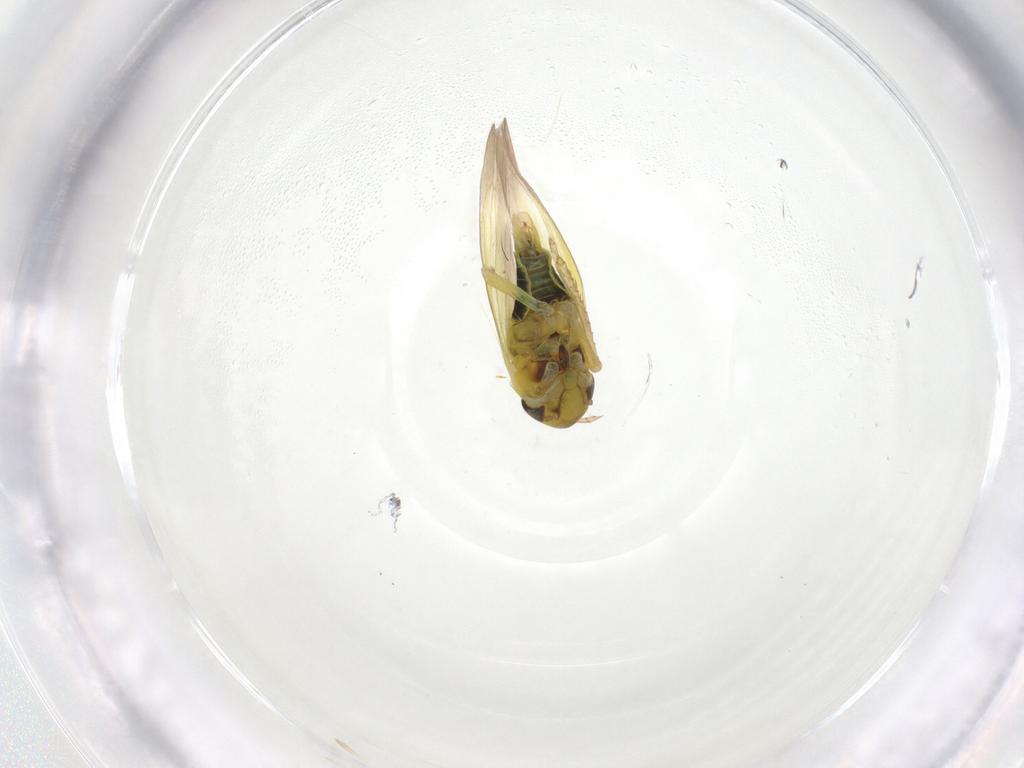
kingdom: Animalia
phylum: Arthropoda
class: Insecta
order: Hemiptera
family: Cicadellidae
